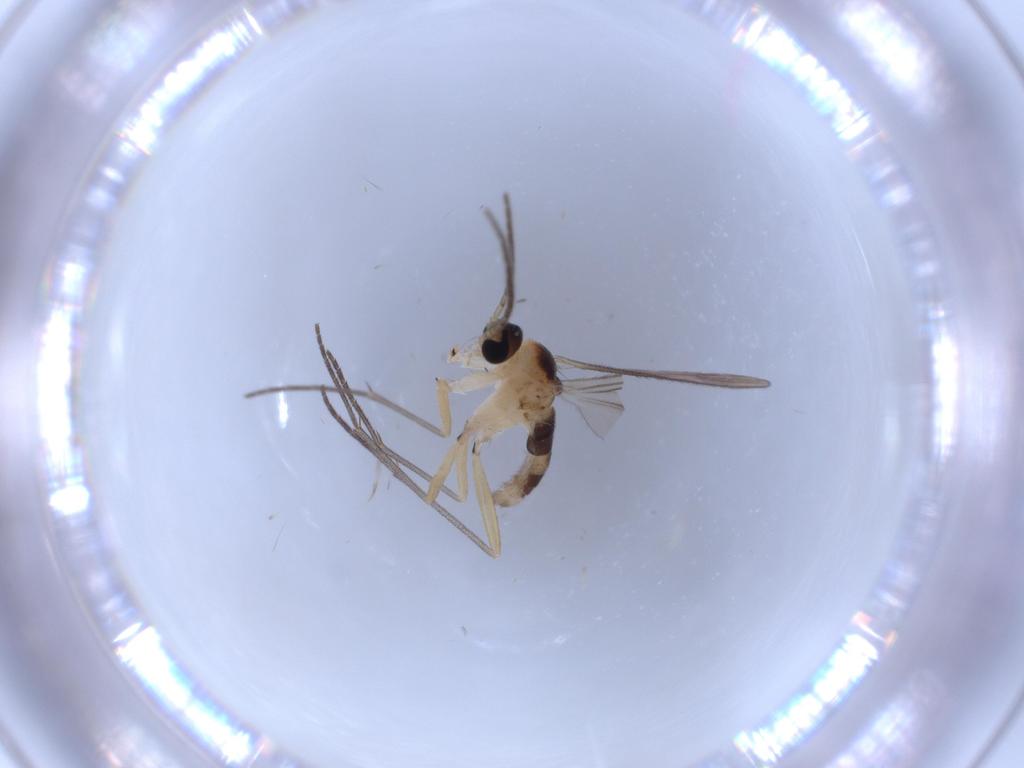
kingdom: Animalia
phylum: Arthropoda
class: Insecta
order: Diptera
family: Sciaridae
